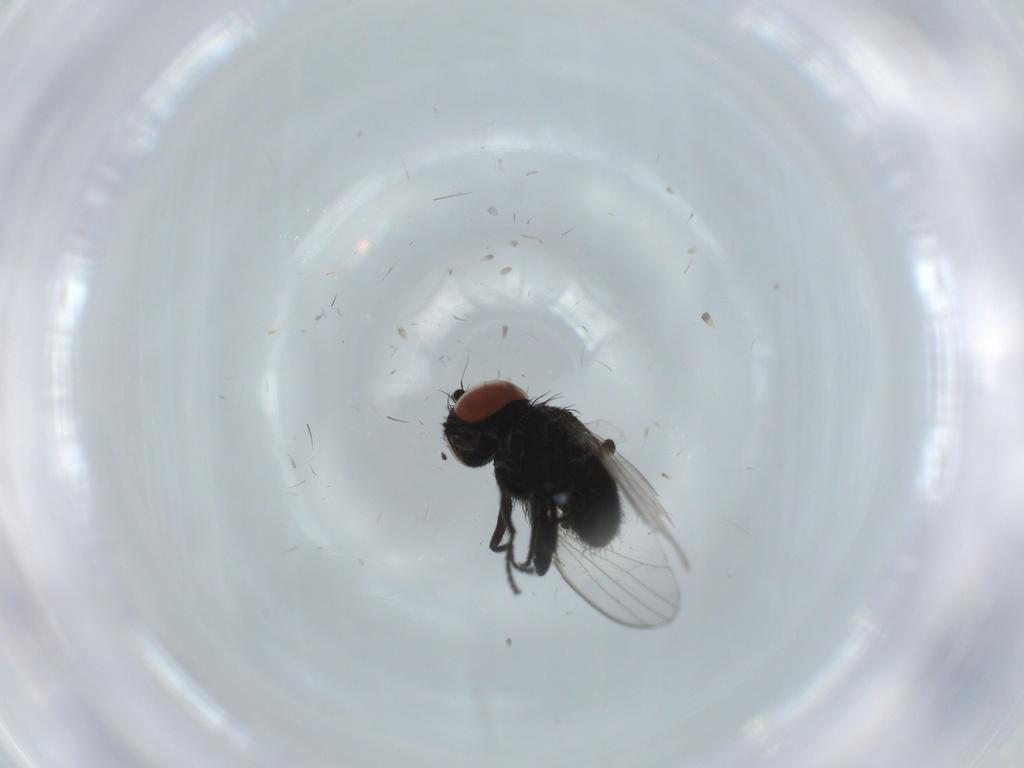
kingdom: Animalia
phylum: Arthropoda
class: Insecta
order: Diptera
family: Milichiidae
